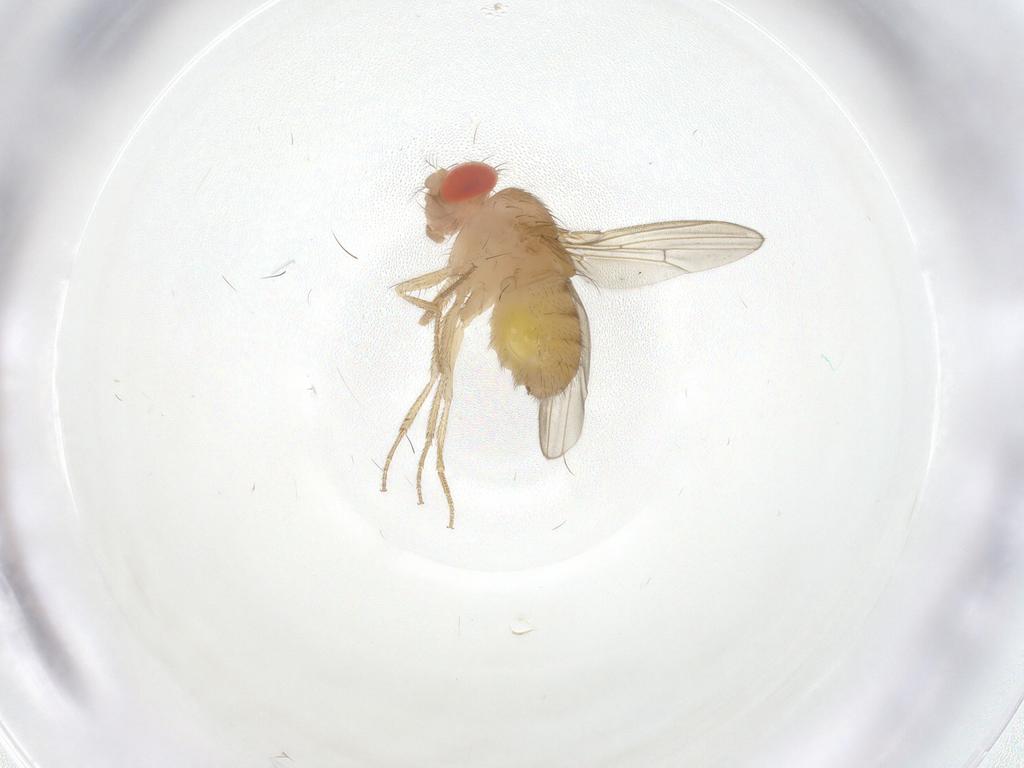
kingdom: Animalia
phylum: Arthropoda
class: Insecta
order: Diptera
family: Drosophilidae
